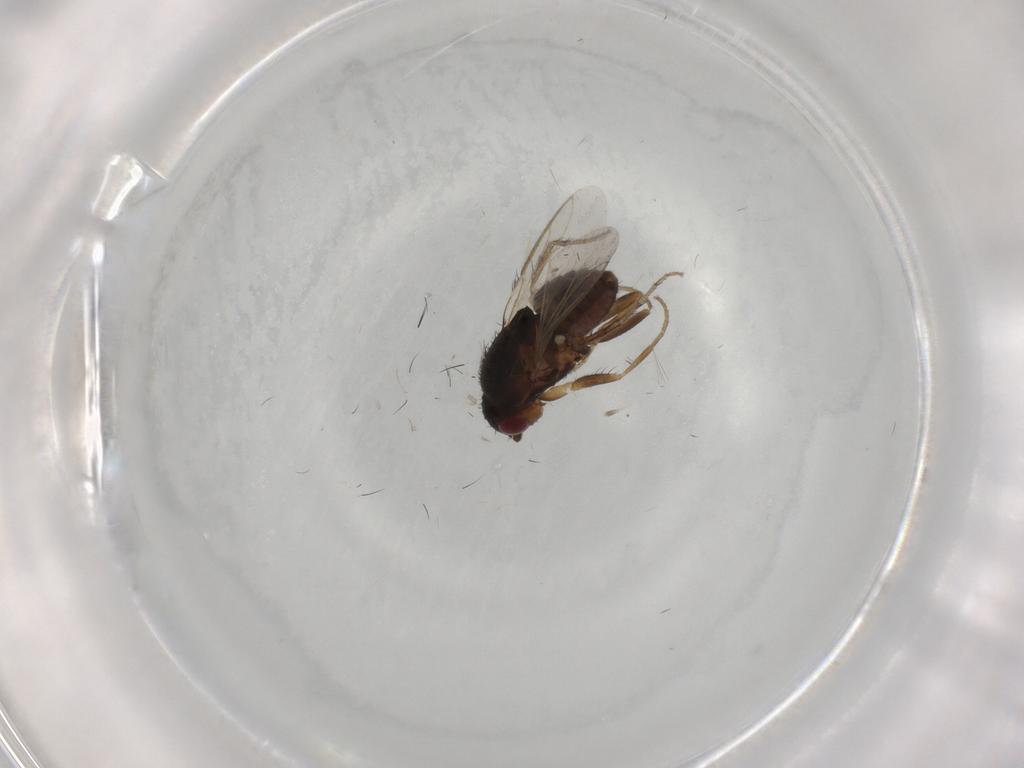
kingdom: Animalia
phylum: Arthropoda
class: Insecta
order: Diptera
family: Sphaeroceridae
